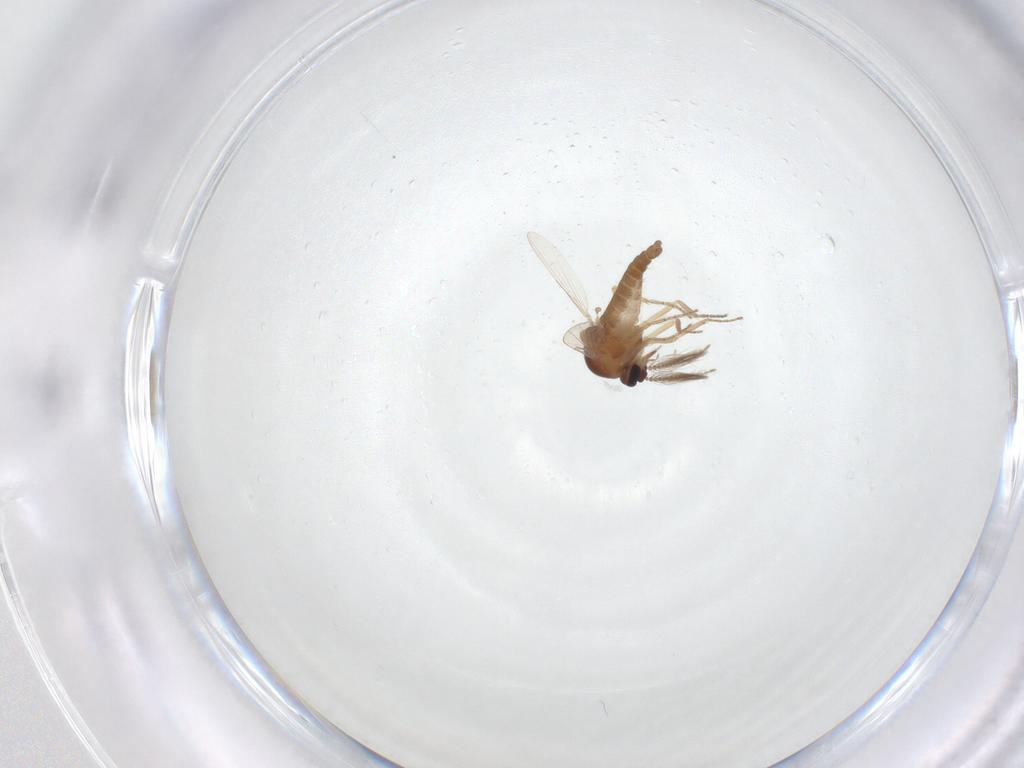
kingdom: Animalia
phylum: Arthropoda
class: Insecta
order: Diptera
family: Ceratopogonidae
